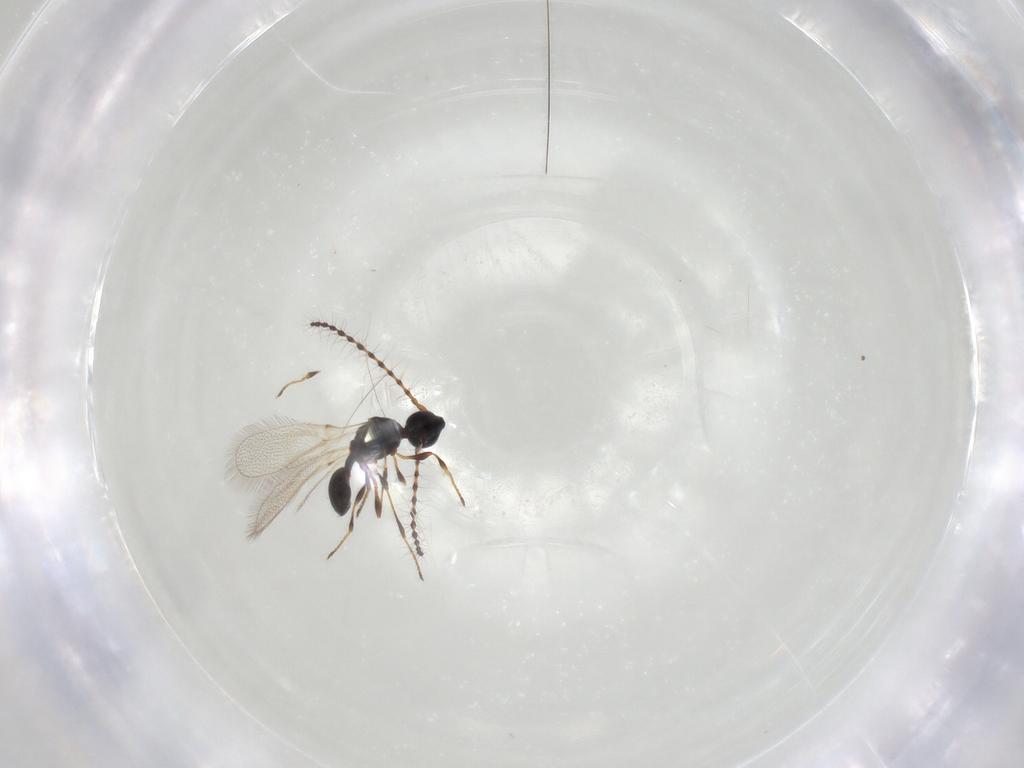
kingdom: Animalia
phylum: Arthropoda
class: Insecta
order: Hymenoptera
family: Diapriidae
